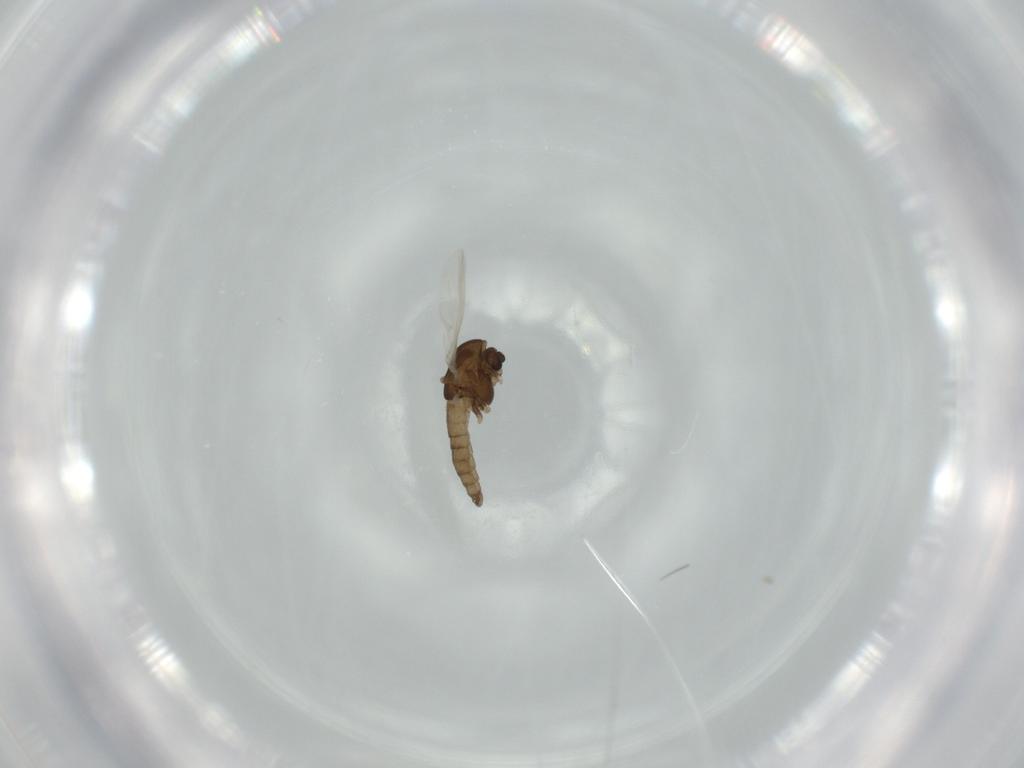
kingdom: Animalia
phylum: Arthropoda
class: Insecta
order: Diptera
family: Chironomidae
